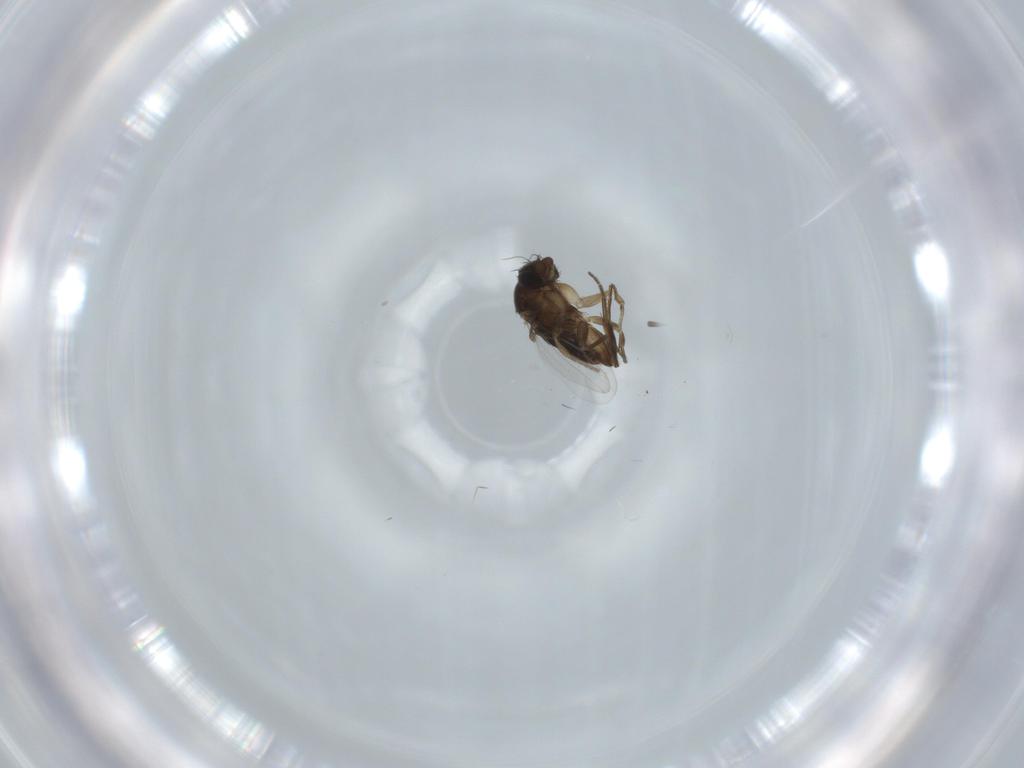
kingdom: Animalia
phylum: Arthropoda
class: Insecta
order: Diptera
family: Phoridae
